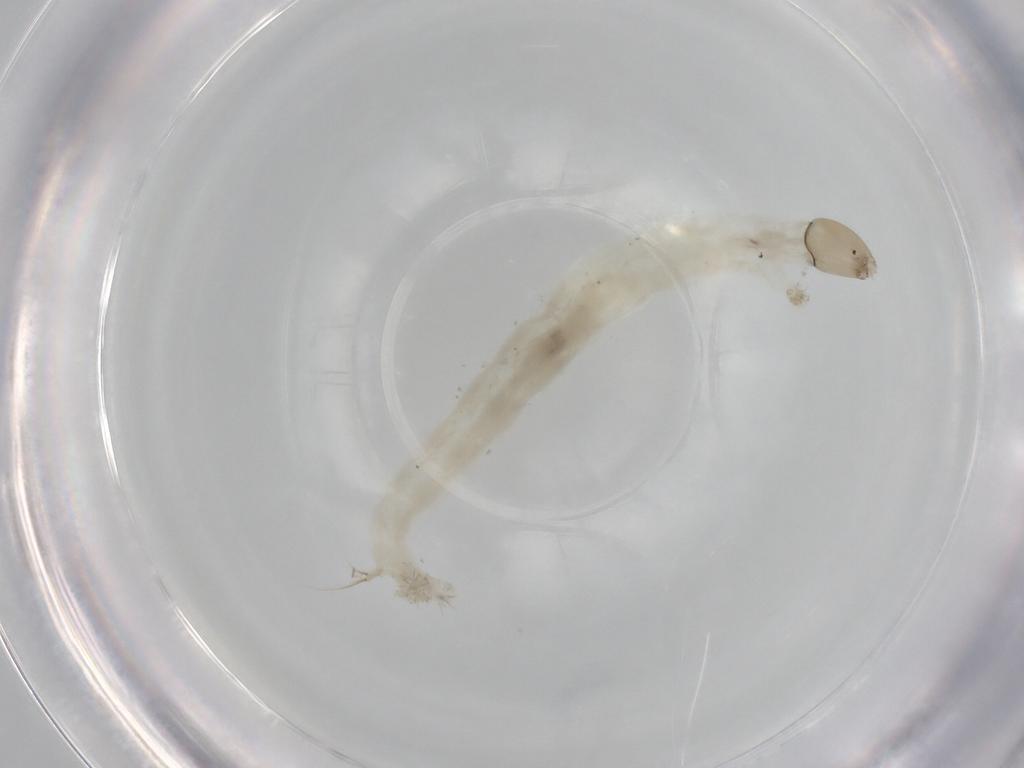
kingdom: Animalia
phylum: Arthropoda
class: Insecta
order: Diptera
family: Chironomidae
